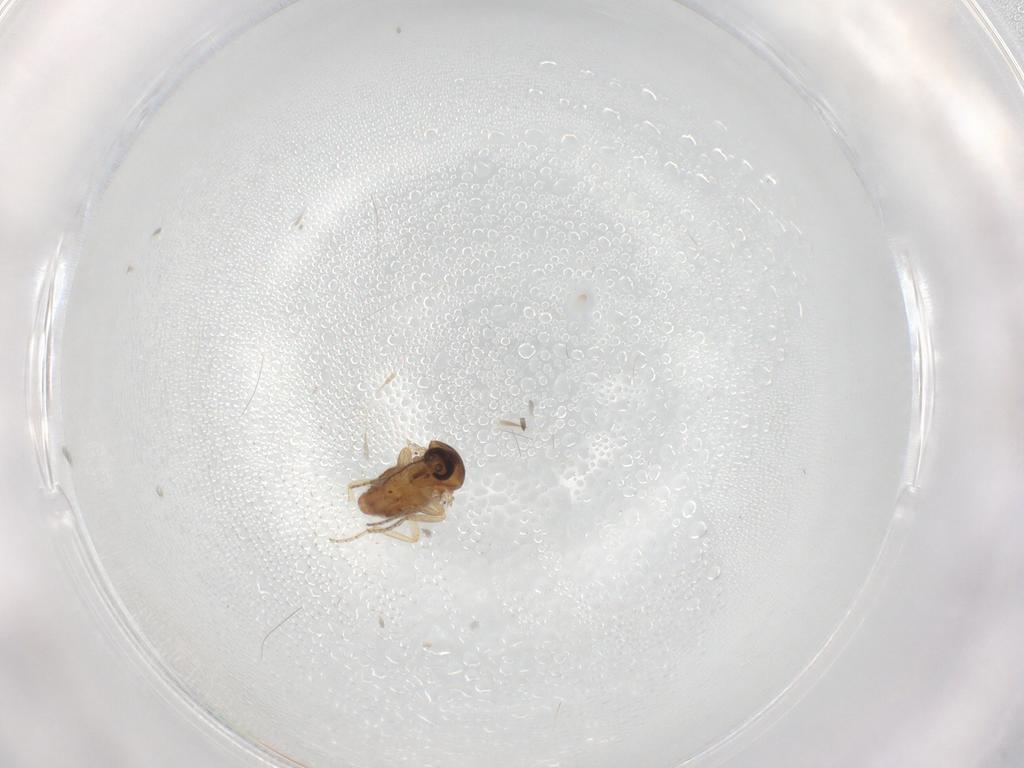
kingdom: Animalia
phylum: Arthropoda
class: Insecta
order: Diptera
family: Ceratopogonidae
